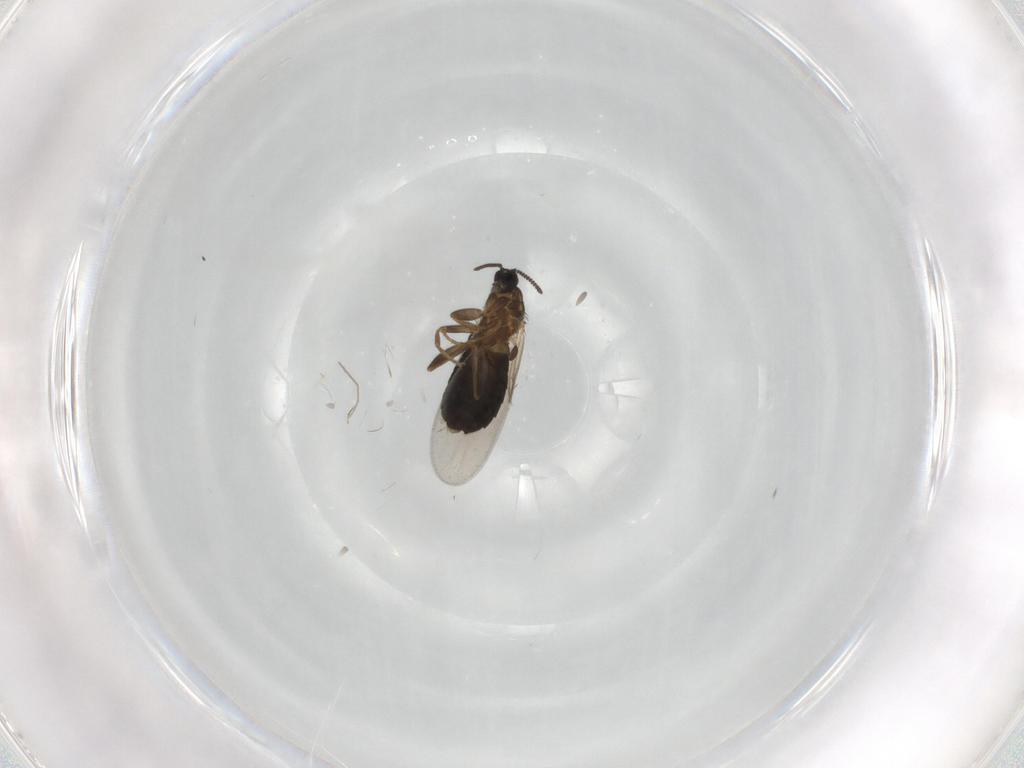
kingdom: Animalia
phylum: Arthropoda
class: Insecta
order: Diptera
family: Scatopsidae
